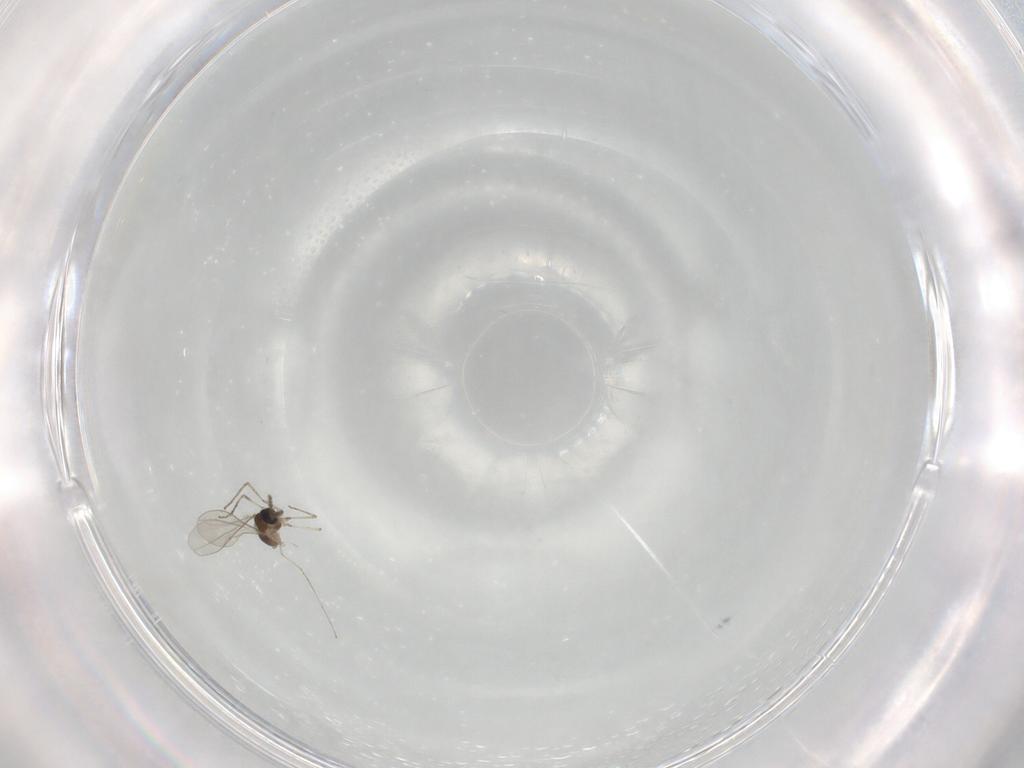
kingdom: Animalia
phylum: Arthropoda
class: Insecta
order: Diptera
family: Cecidomyiidae
